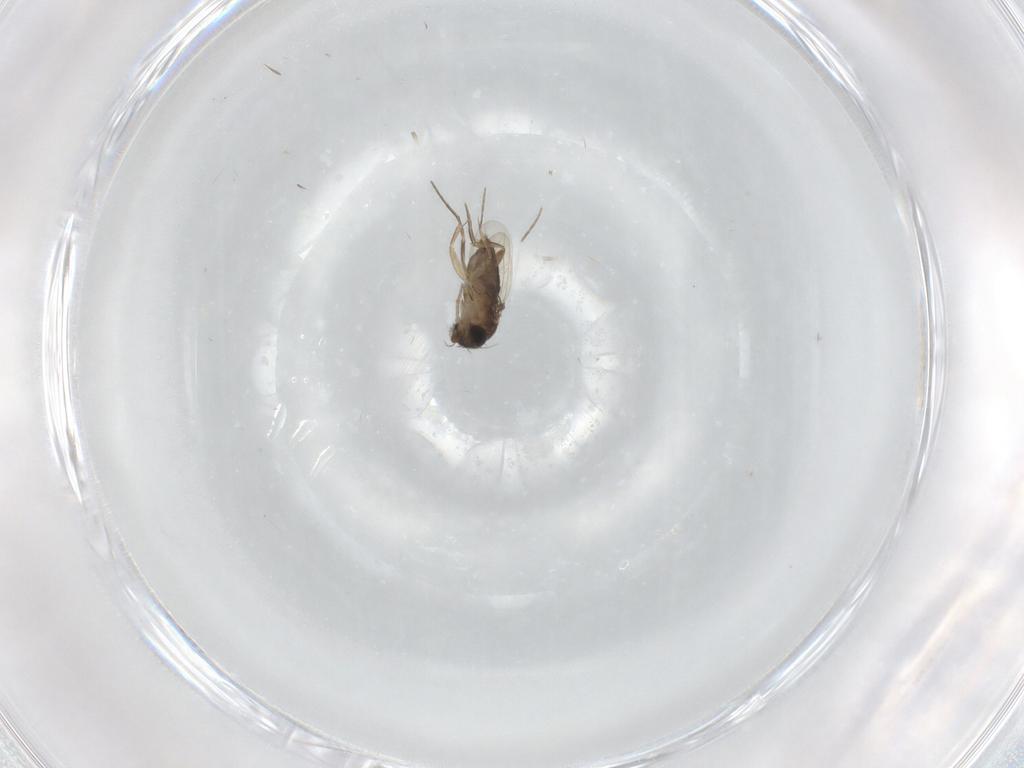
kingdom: Animalia
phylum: Arthropoda
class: Insecta
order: Diptera
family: Phoridae
